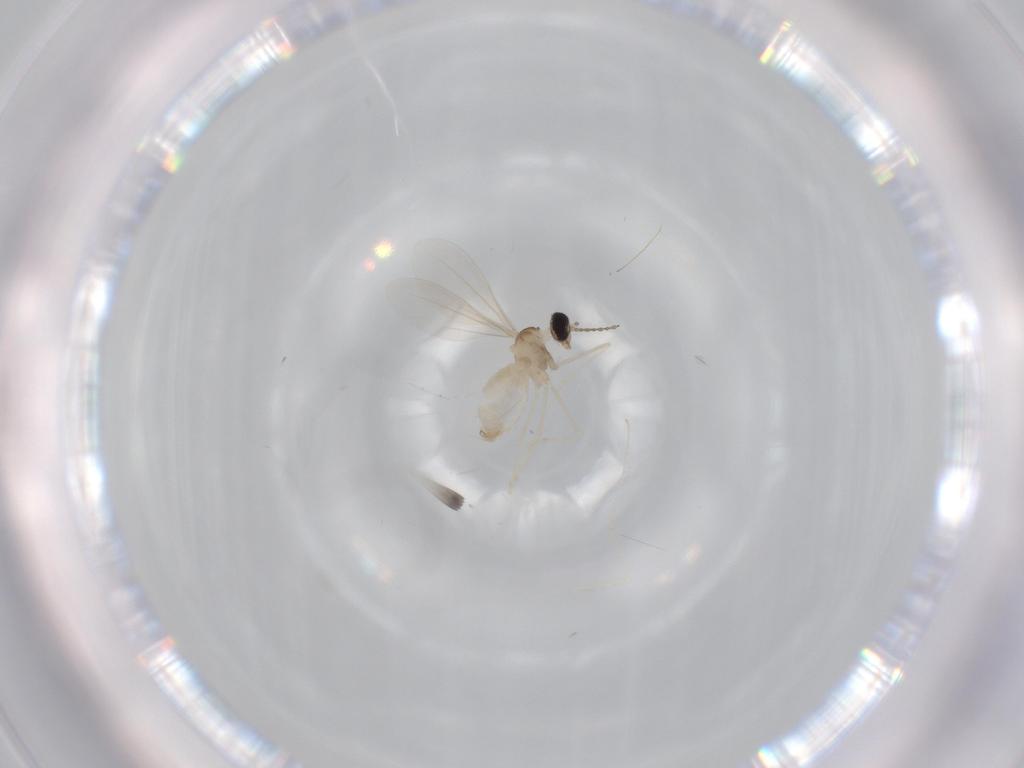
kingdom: Animalia
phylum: Arthropoda
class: Insecta
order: Diptera
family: Cecidomyiidae
